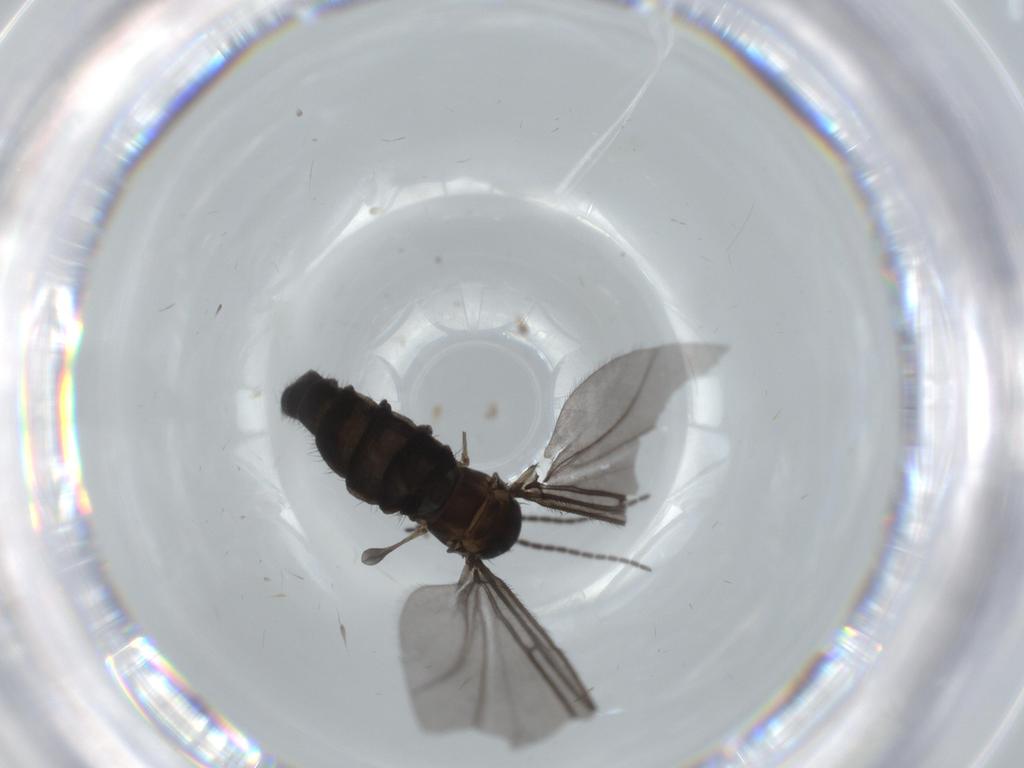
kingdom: Animalia
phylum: Arthropoda
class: Insecta
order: Diptera
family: Sciaridae
